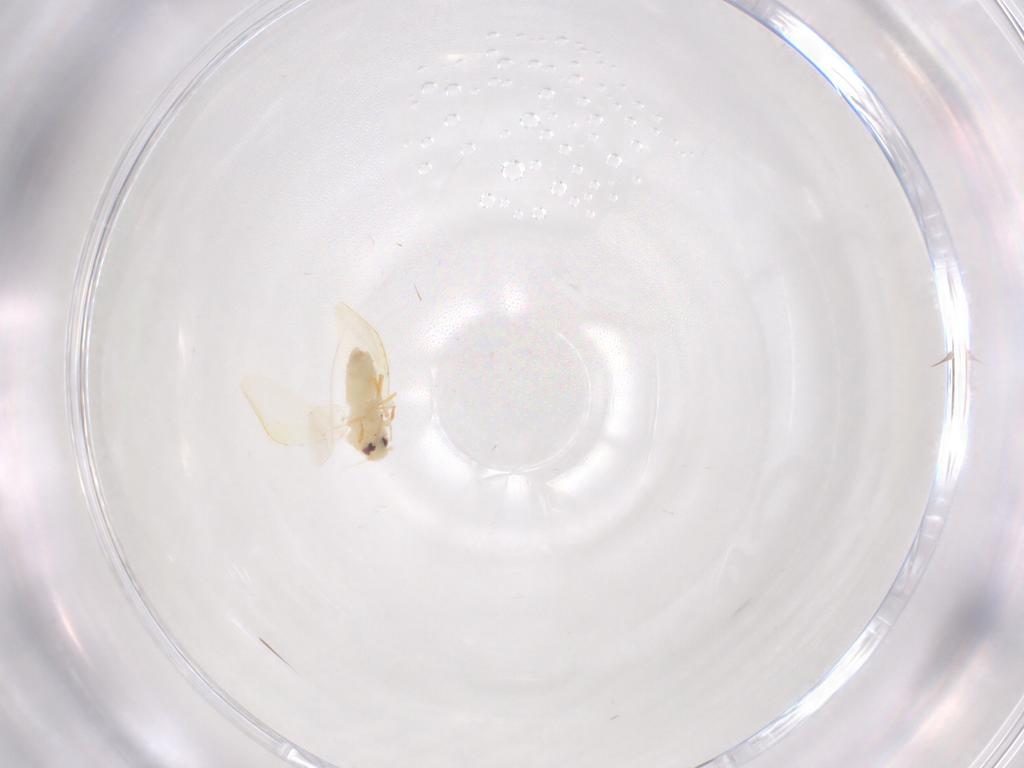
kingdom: Animalia
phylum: Arthropoda
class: Insecta
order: Hemiptera
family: Aleyrodidae
